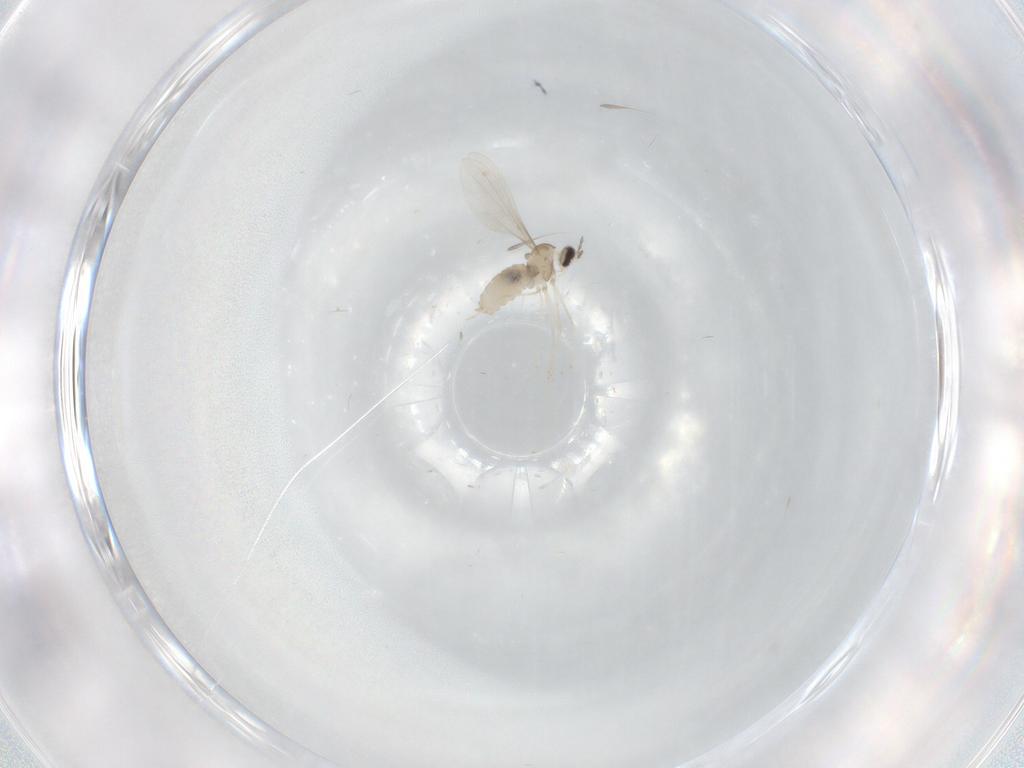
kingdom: Animalia
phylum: Arthropoda
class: Insecta
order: Diptera
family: Cecidomyiidae
